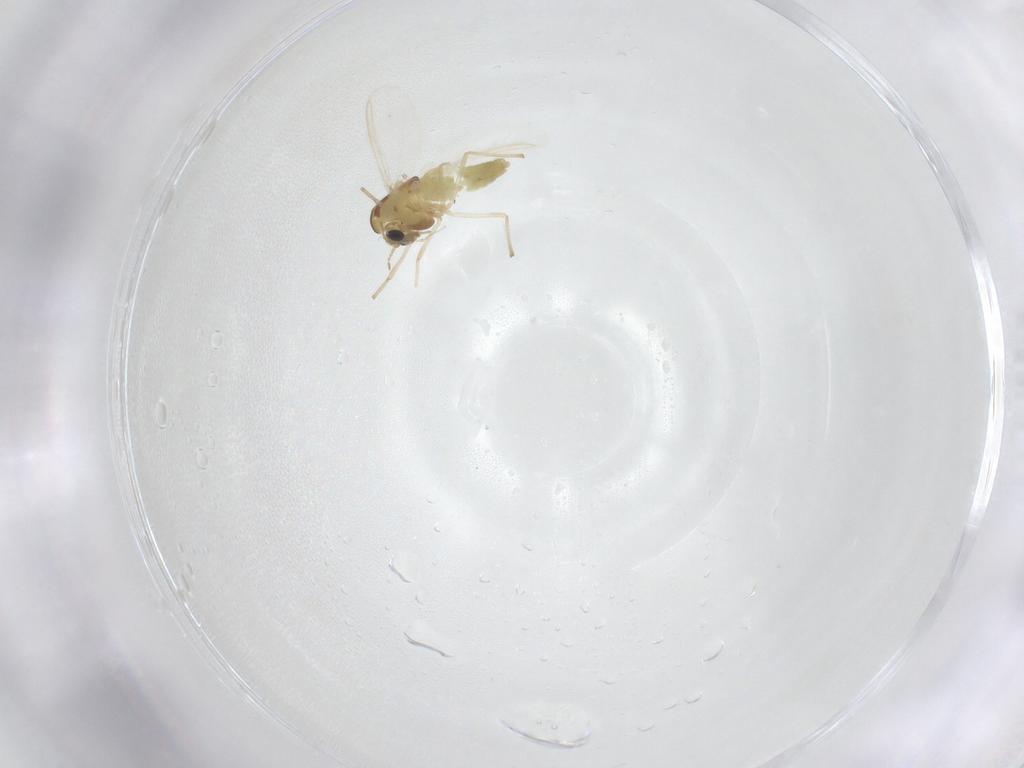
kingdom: Animalia
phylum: Arthropoda
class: Insecta
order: Diptera
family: Chironomidae
